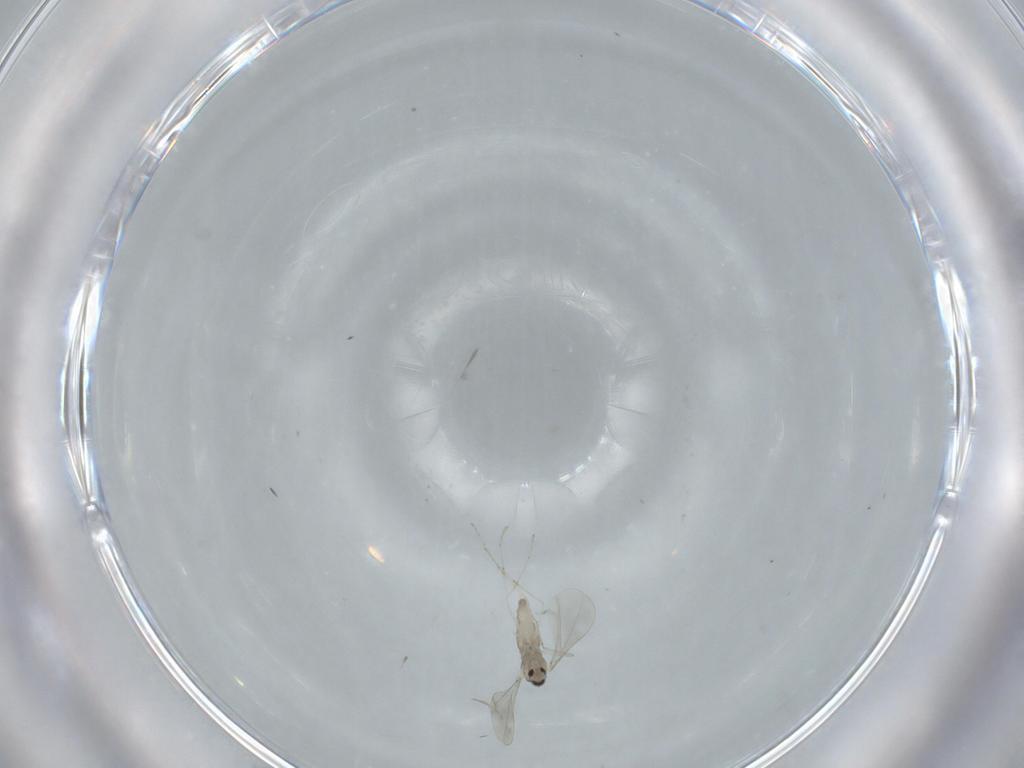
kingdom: Animalia
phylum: Arthropoda
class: Insecta
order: Diptera
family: Cecidomyiidae
